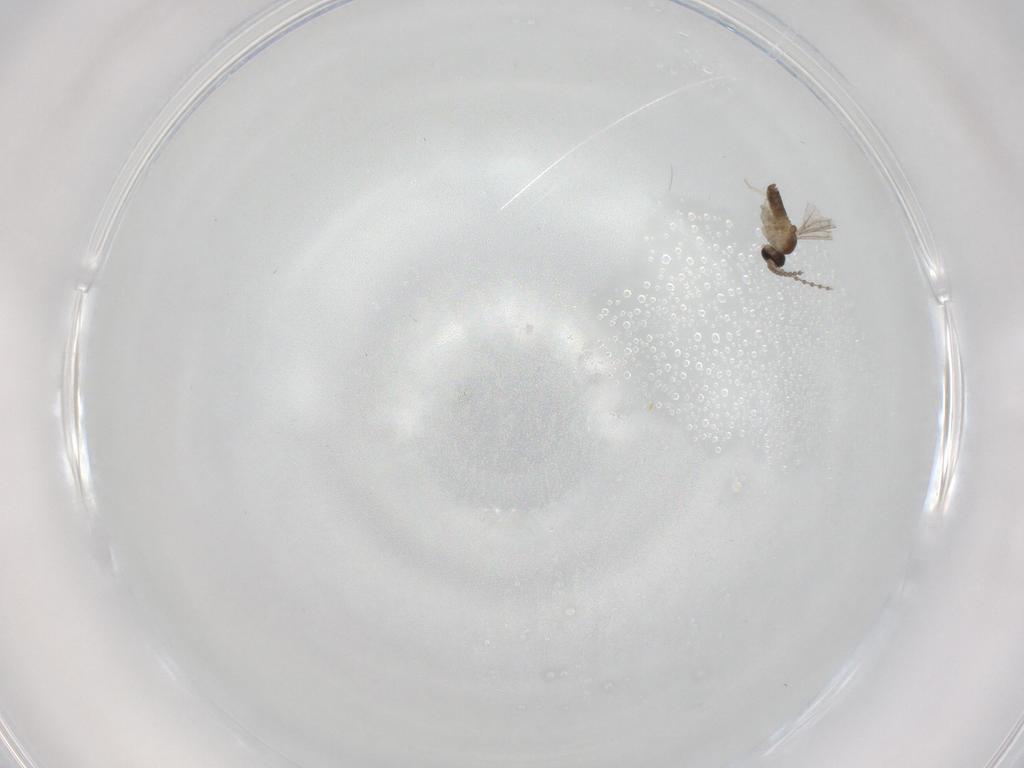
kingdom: Animalia
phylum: Arthropoda
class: Insecta
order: Diptera
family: Cecidomyiidae
